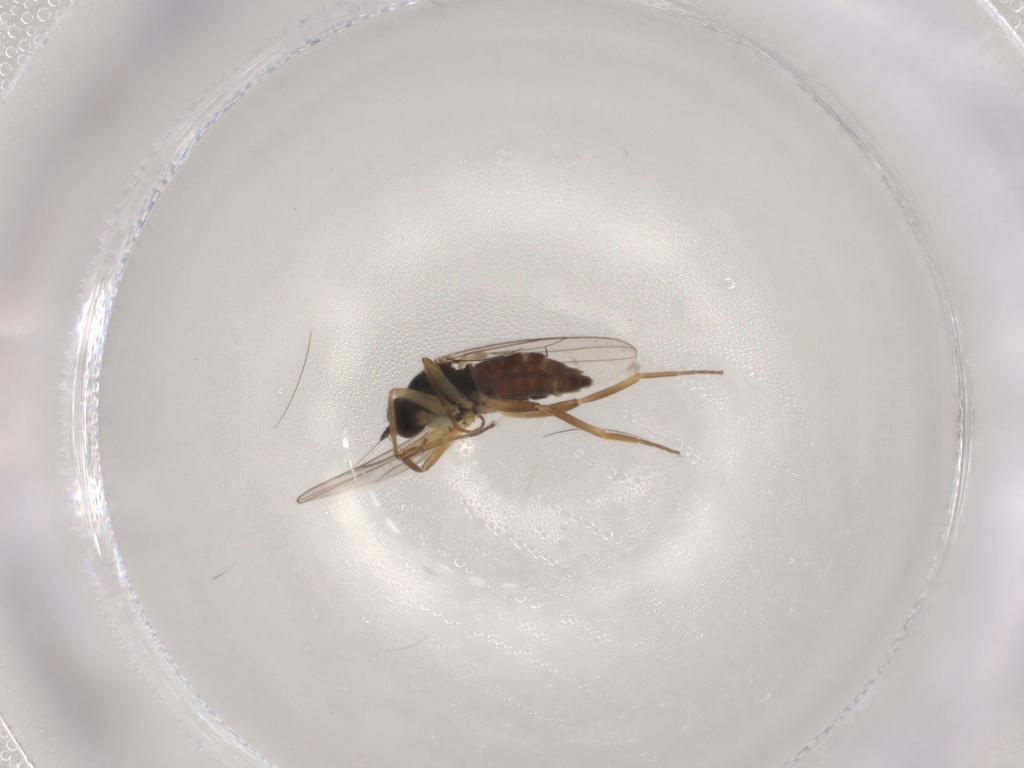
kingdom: Animalia
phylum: Arthropoda
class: Insecta
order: Diptera
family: Hybotidae
